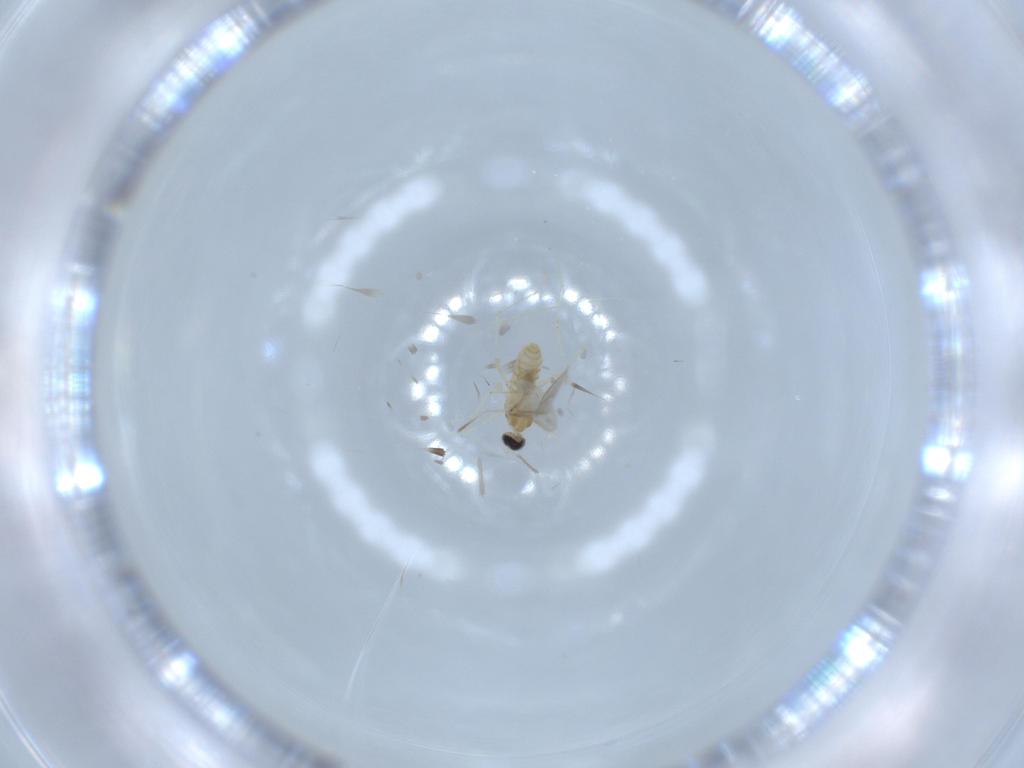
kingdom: Animalia
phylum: Arthropoda
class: Insecta
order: Diptera
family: Cecidomyiidae
